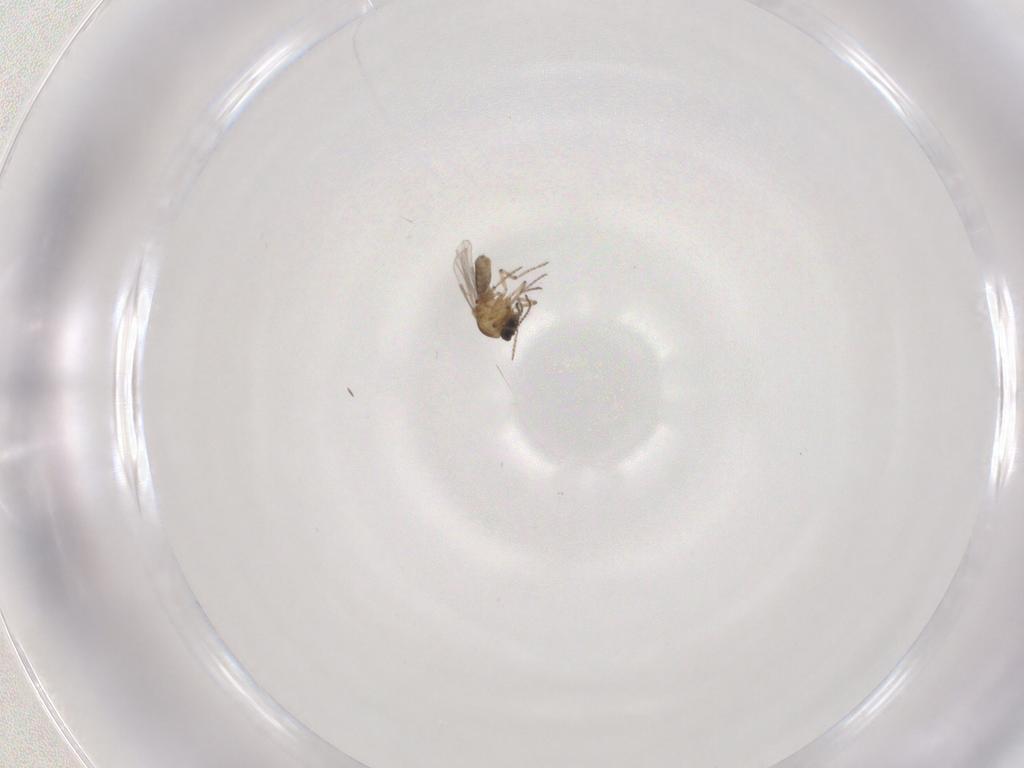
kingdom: Animalia
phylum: Arthropoda
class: Insecta
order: Diptera
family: Ceratopogonidae
